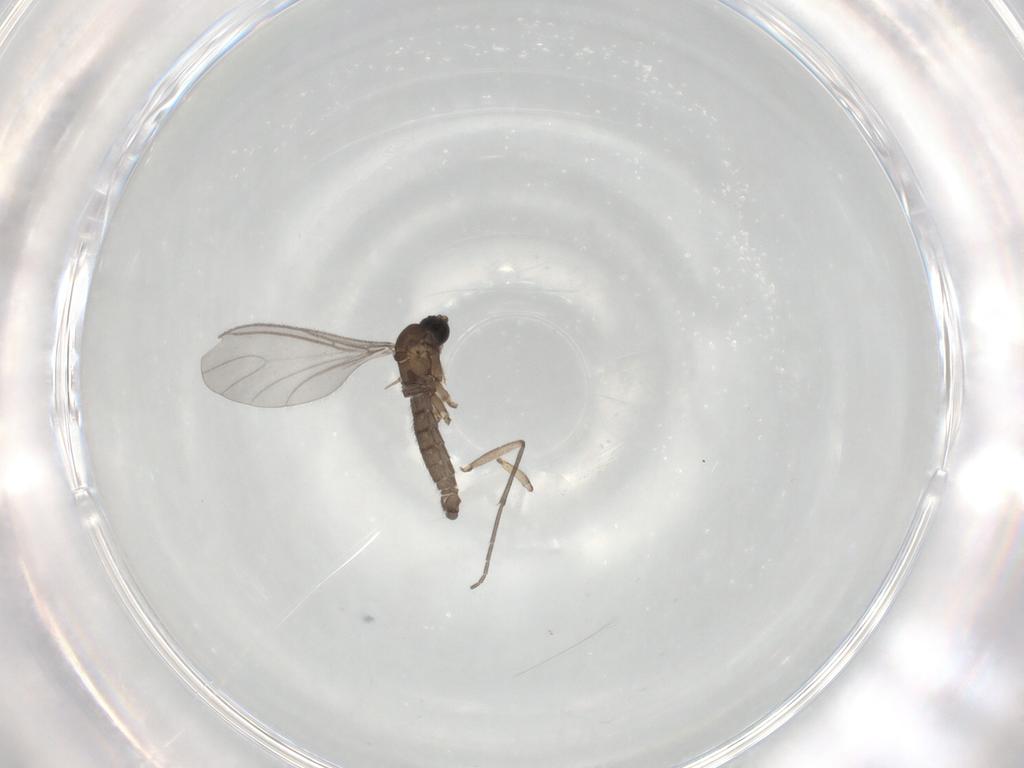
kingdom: Animalia
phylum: Arthropoda
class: Insecta
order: Diptera
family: Sciaridae
